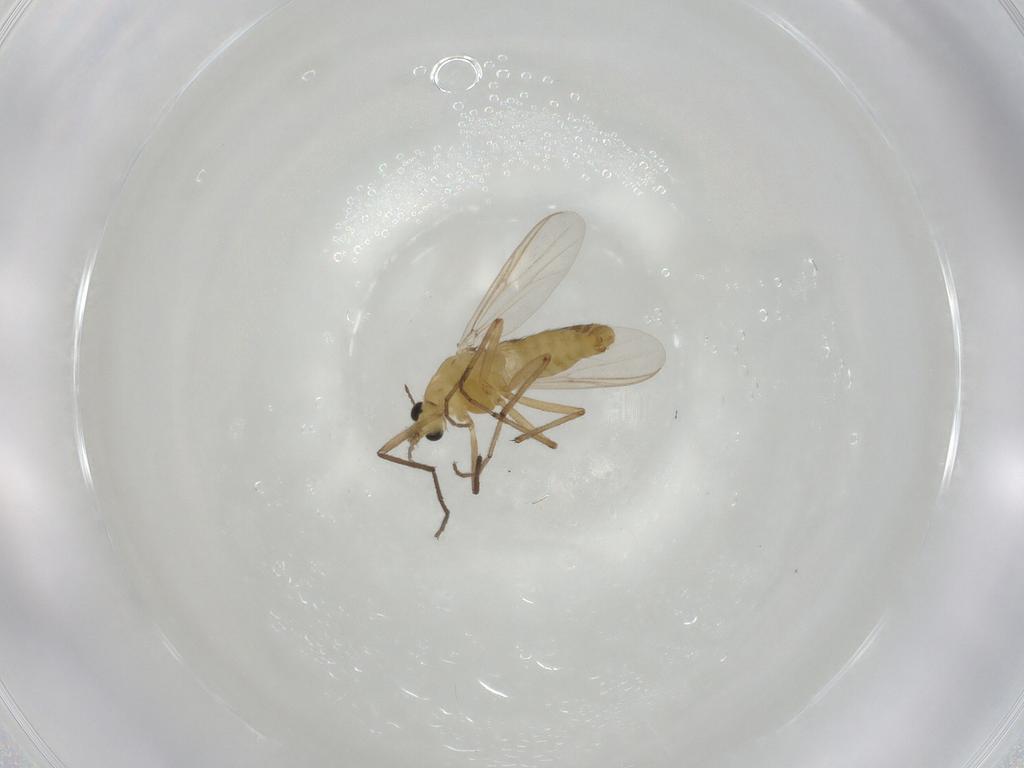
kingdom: Animalia
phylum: Arthropoda
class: Insecta
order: Diptera
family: Chironomidae
